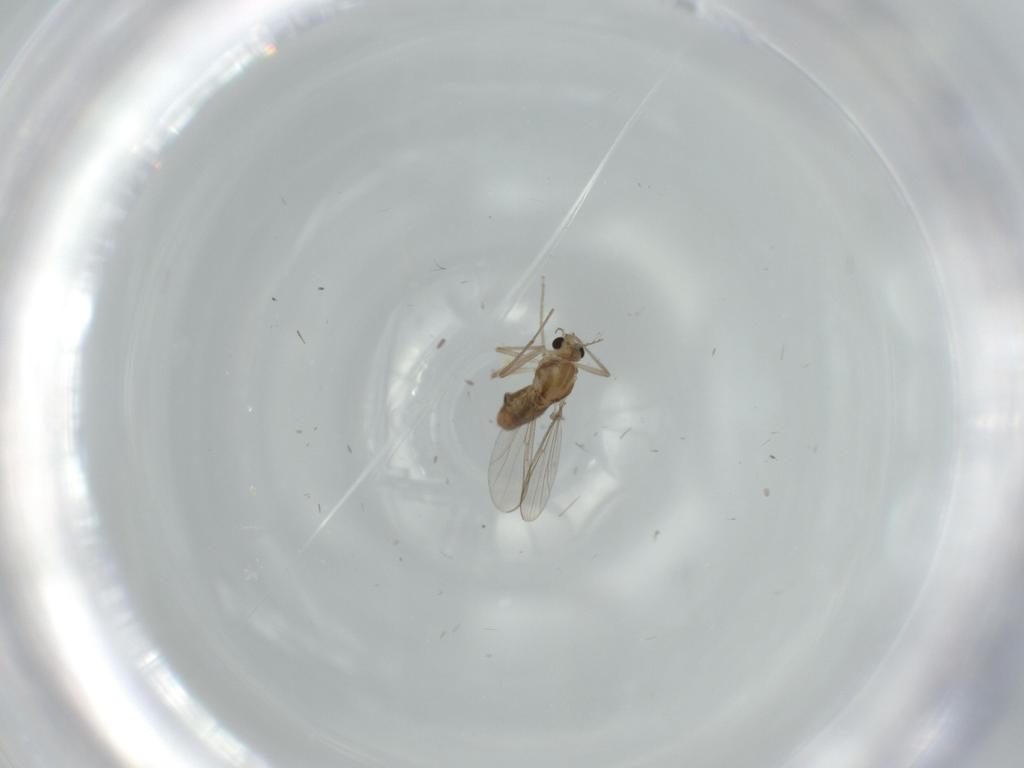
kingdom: Animalia
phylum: Arthropoda
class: Insecta
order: Diptera
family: Chironomidae
